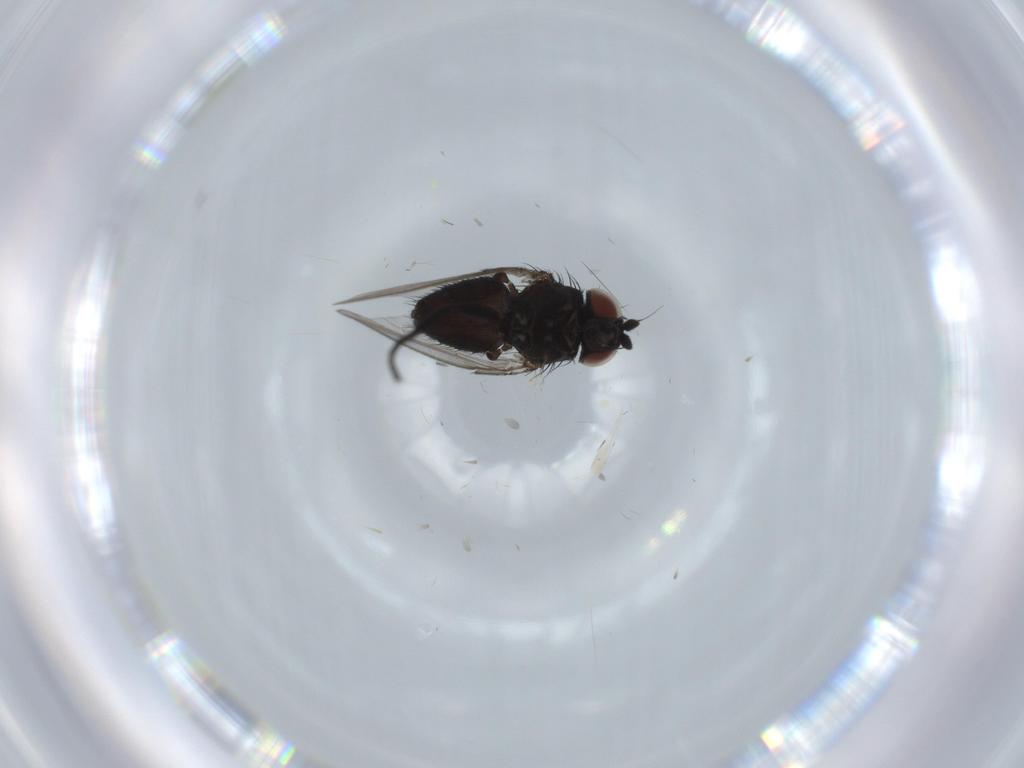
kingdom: Animalia
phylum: Arthropoda
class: Insecta
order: Diptera
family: Milichiidae
